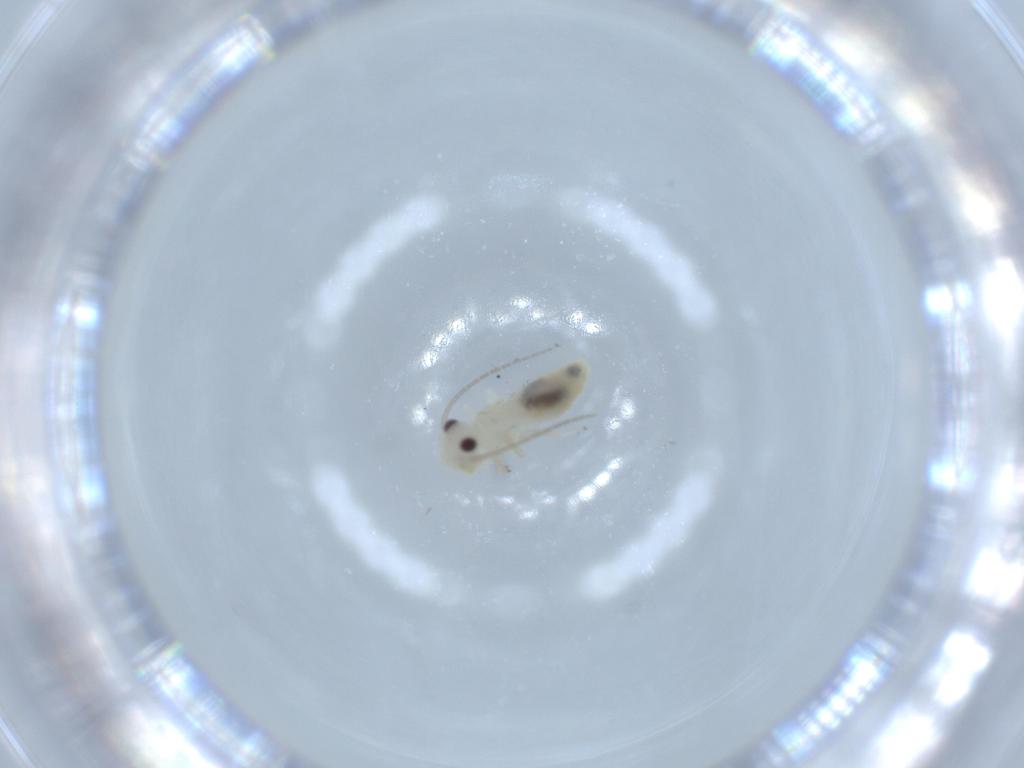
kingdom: Animalia
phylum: Arthropoda
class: Insecta
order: Psocodea
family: Caeciliusidae
